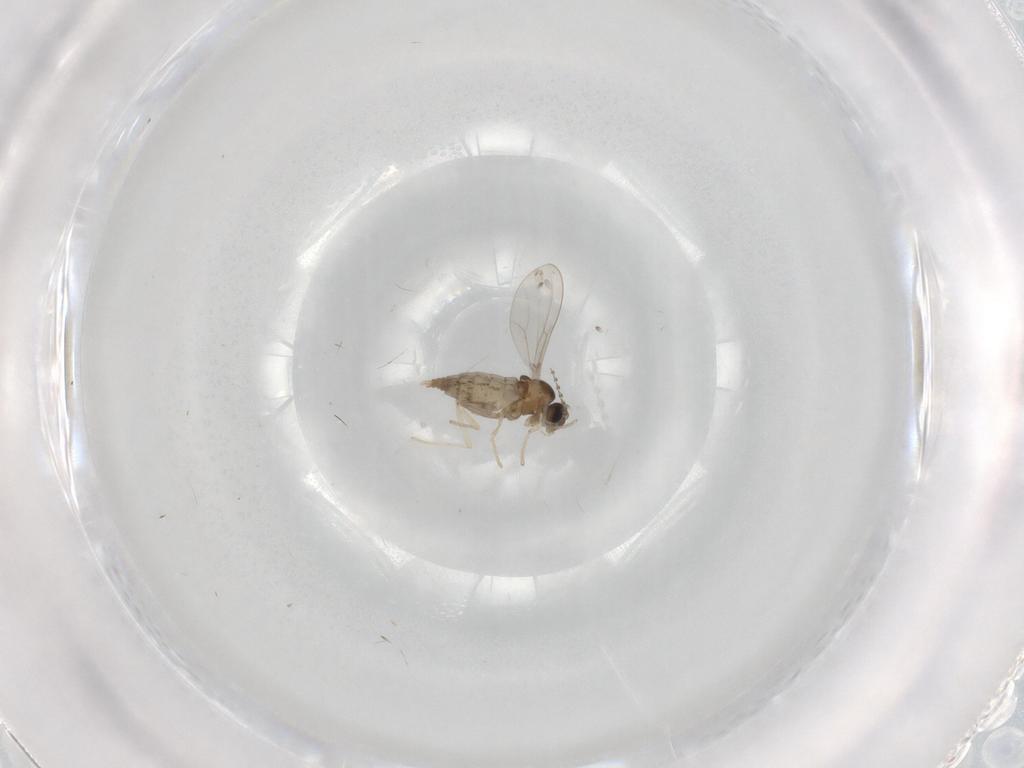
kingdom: Animalia
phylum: Arthropoda
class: Insecta
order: Diptera
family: Cecidomyiidae
